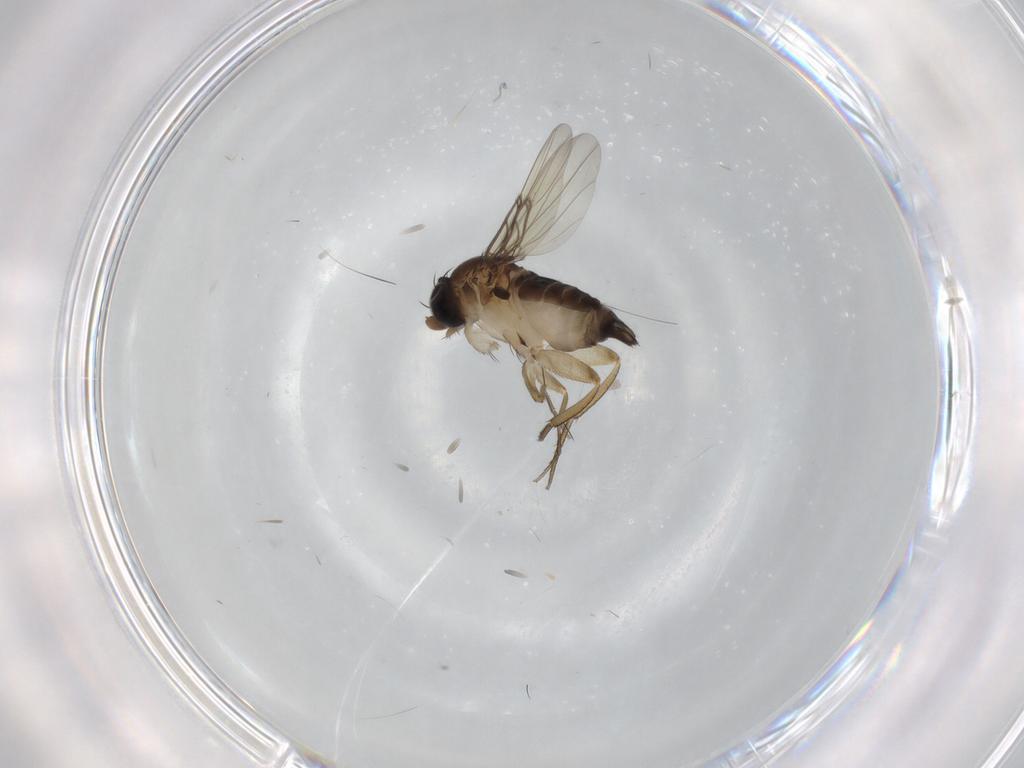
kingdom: Animalia
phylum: Arthropoda
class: Insecta
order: Diptera
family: Phoridae
